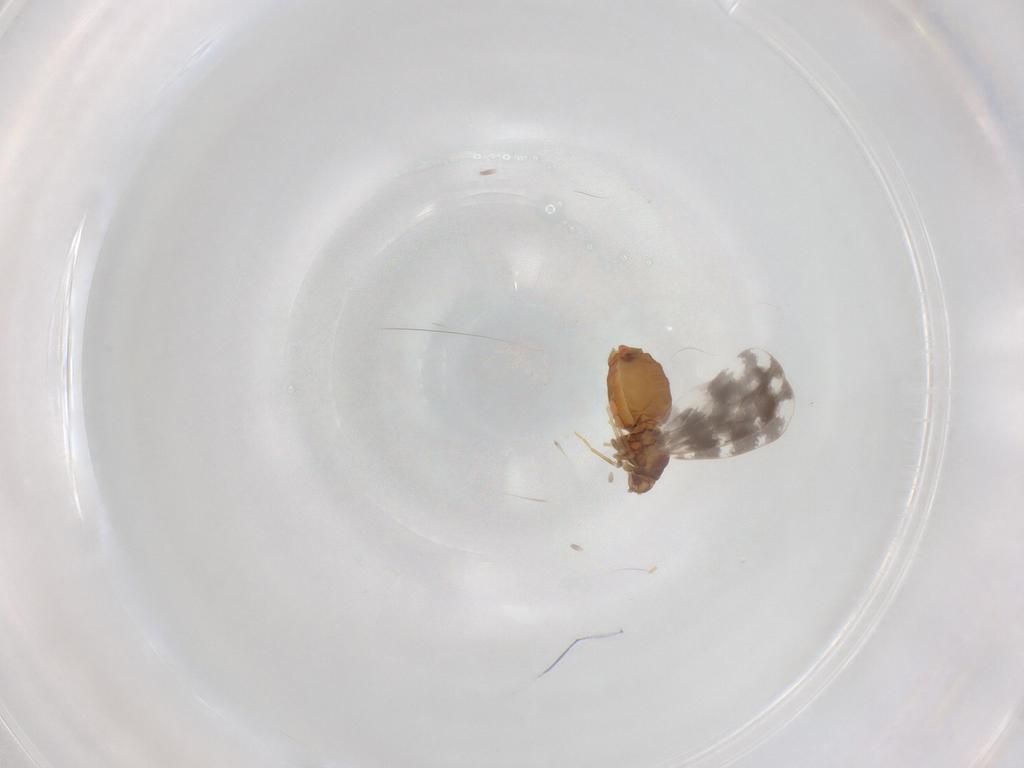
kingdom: Animalia
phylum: Arthropoda
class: Insecta
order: Hemiptera
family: Aleyrodidae
